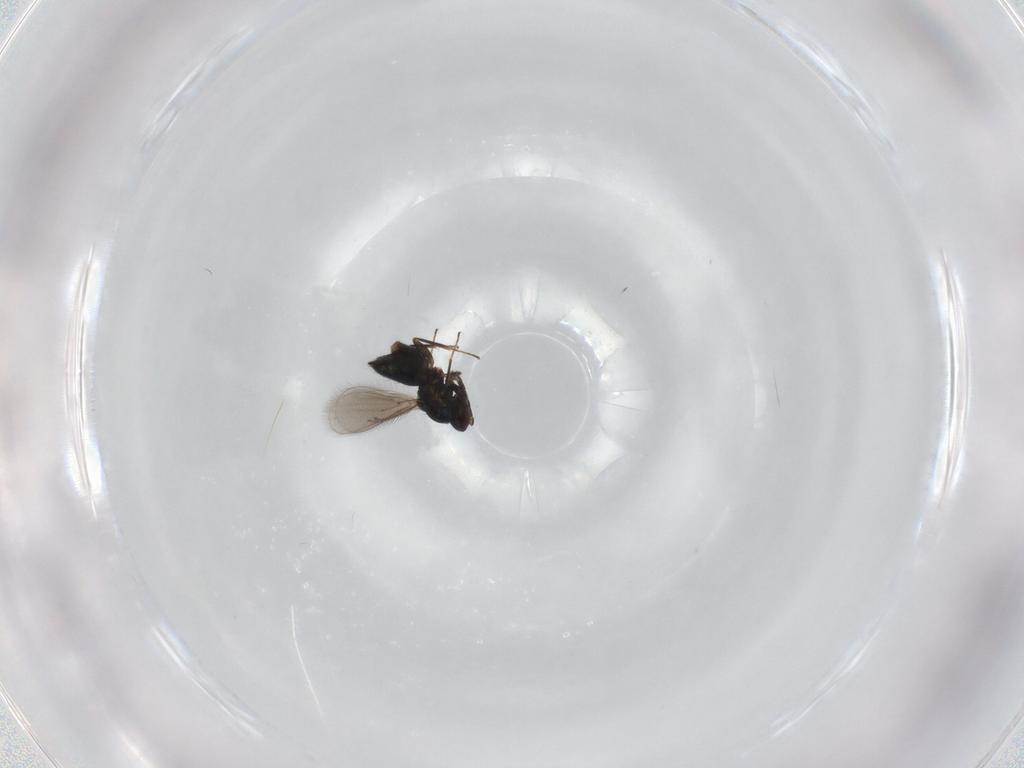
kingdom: Animalia
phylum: Arthropoda
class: Insecta
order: Hymenoptera
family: Eulophidae
